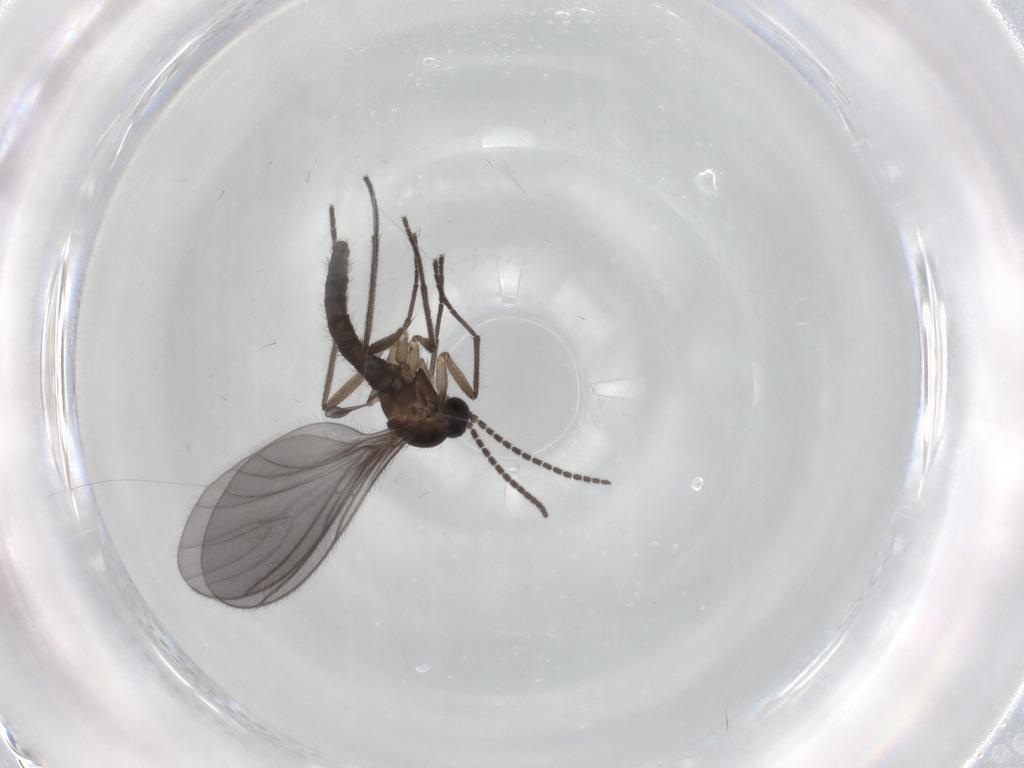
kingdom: Animalia
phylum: Arthropoda
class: Insecta
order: Diptera
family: Sciaridae
